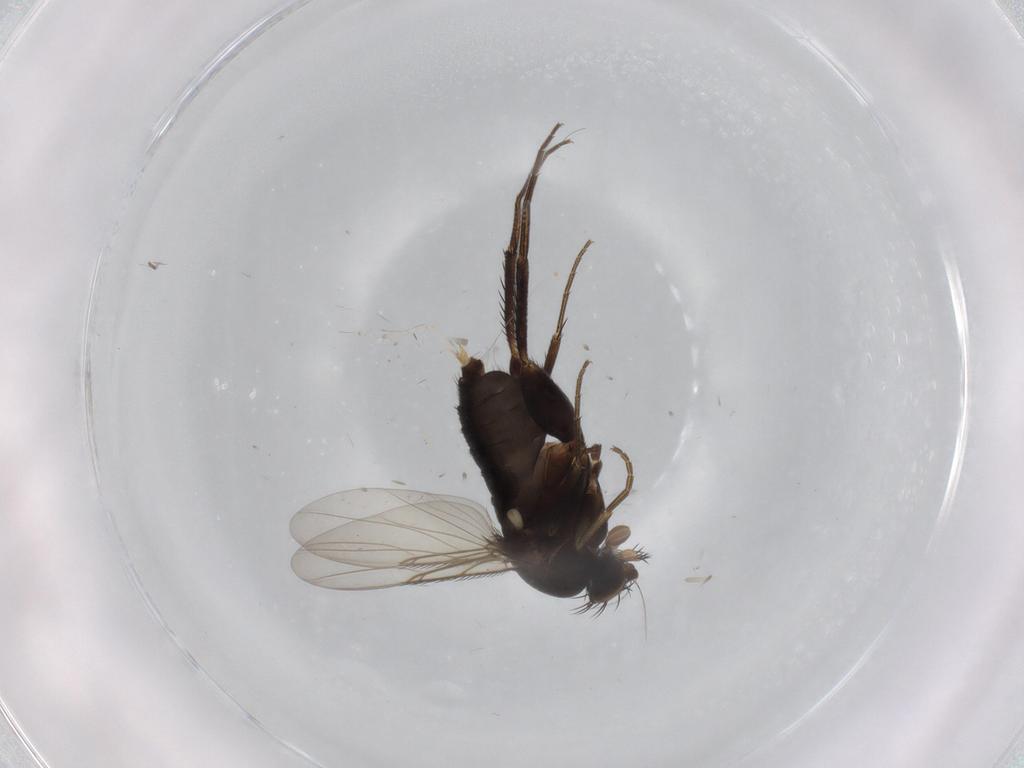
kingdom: Animalia
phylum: Arthropoda
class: Insecta
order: Diptera
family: Phoridae
